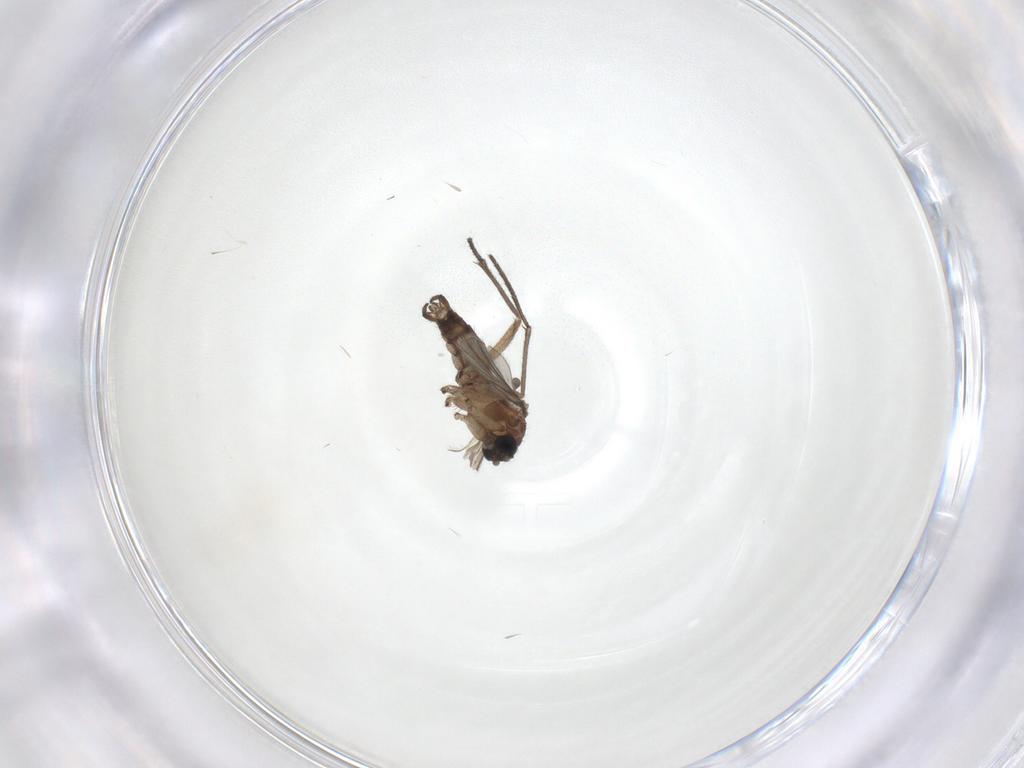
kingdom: Animalia
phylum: Arthropoda
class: Insecta
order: Diptera
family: Sciaridae
